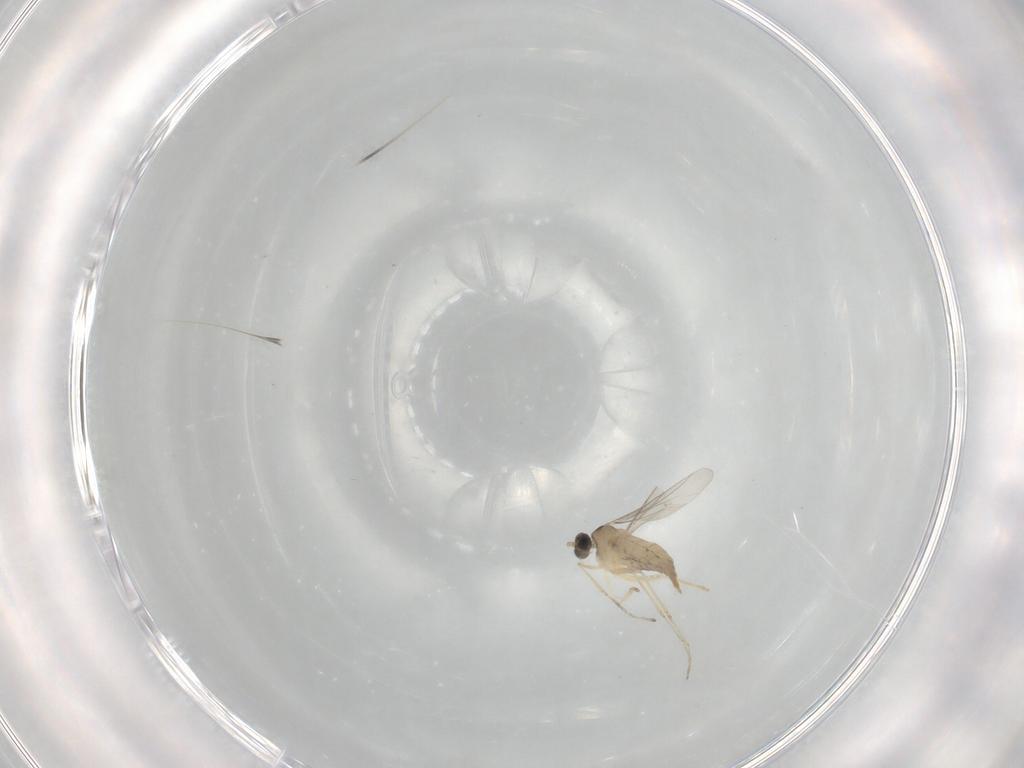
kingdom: Animalia
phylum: Arthropoda
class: Insecta
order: Diptera
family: Cecidomyiidae
